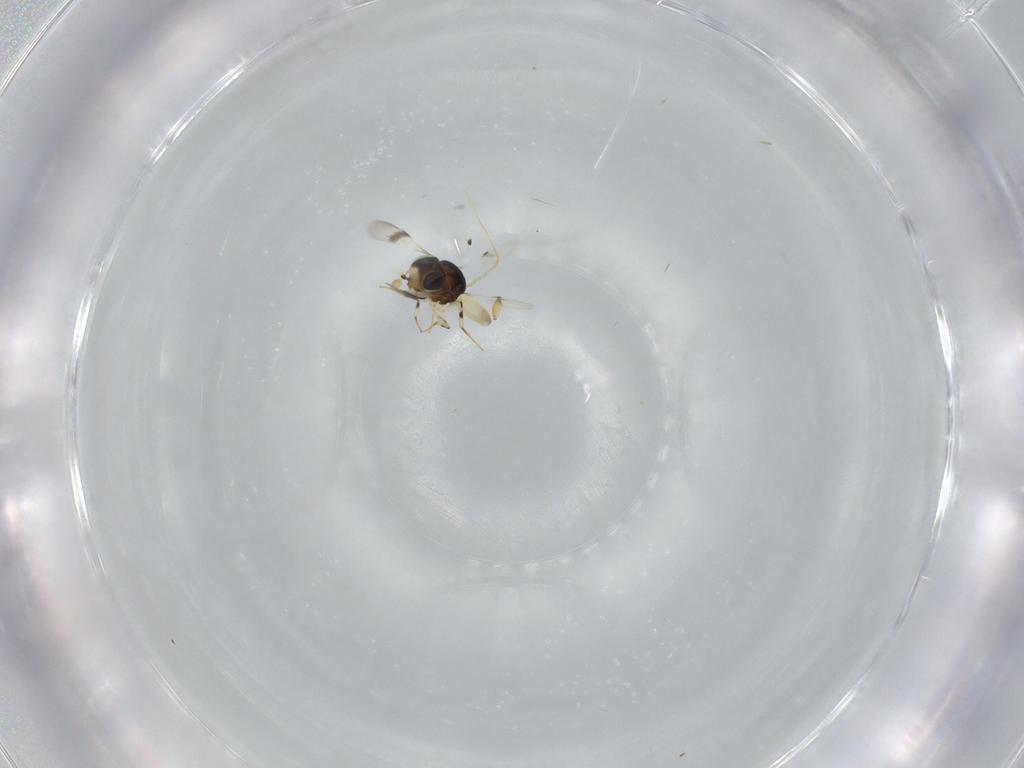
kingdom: Animalia
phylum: Arthropoda
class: Insecta
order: Hymenoptera
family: Scelionidae
